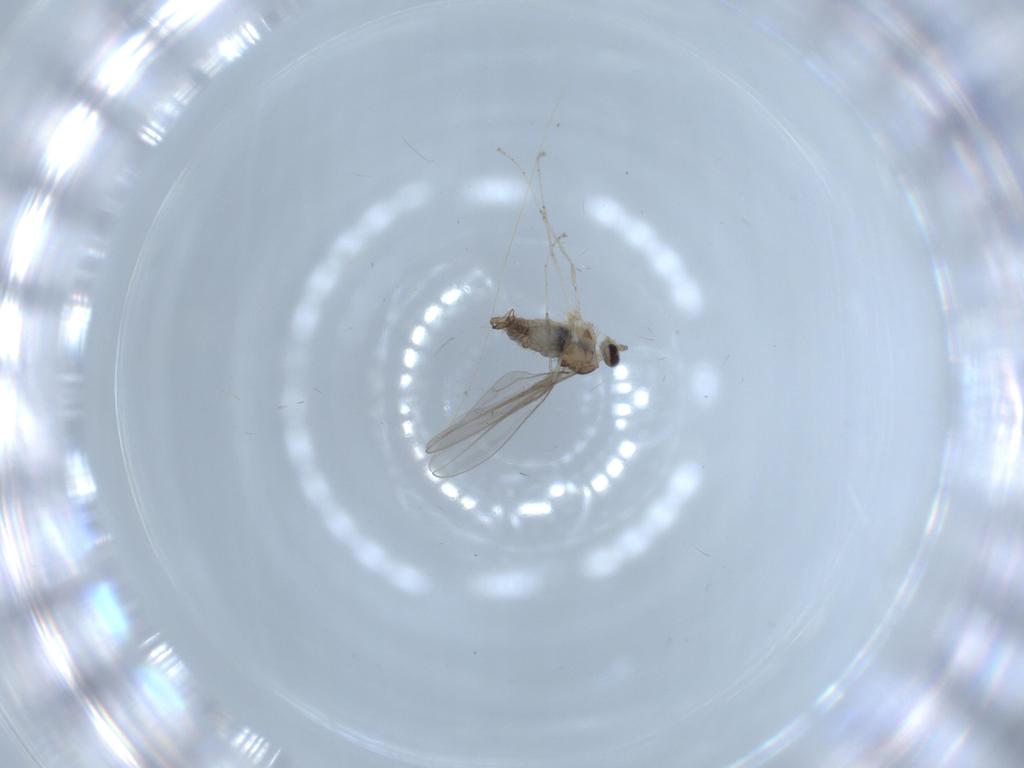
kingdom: Animalia
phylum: Arthropoda
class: Insecta
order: Diptera
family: Cecidomyiidae
